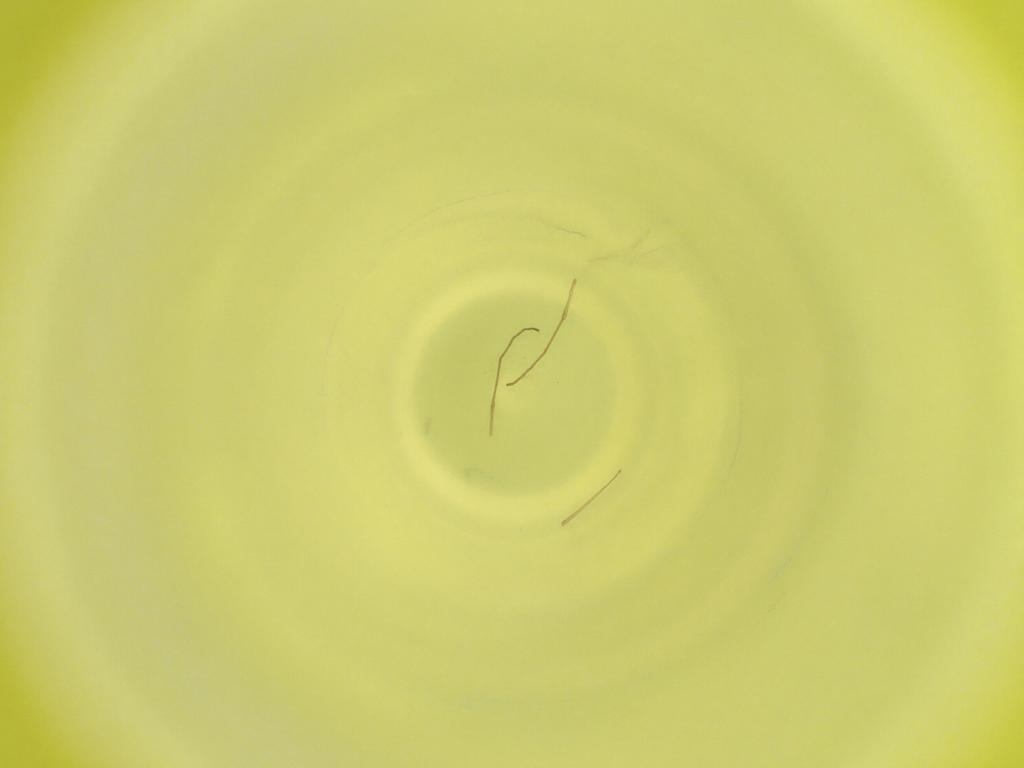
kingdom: Animalia
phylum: Arthropoda
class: Insecta
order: Diptera
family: Cecidomyiidae
